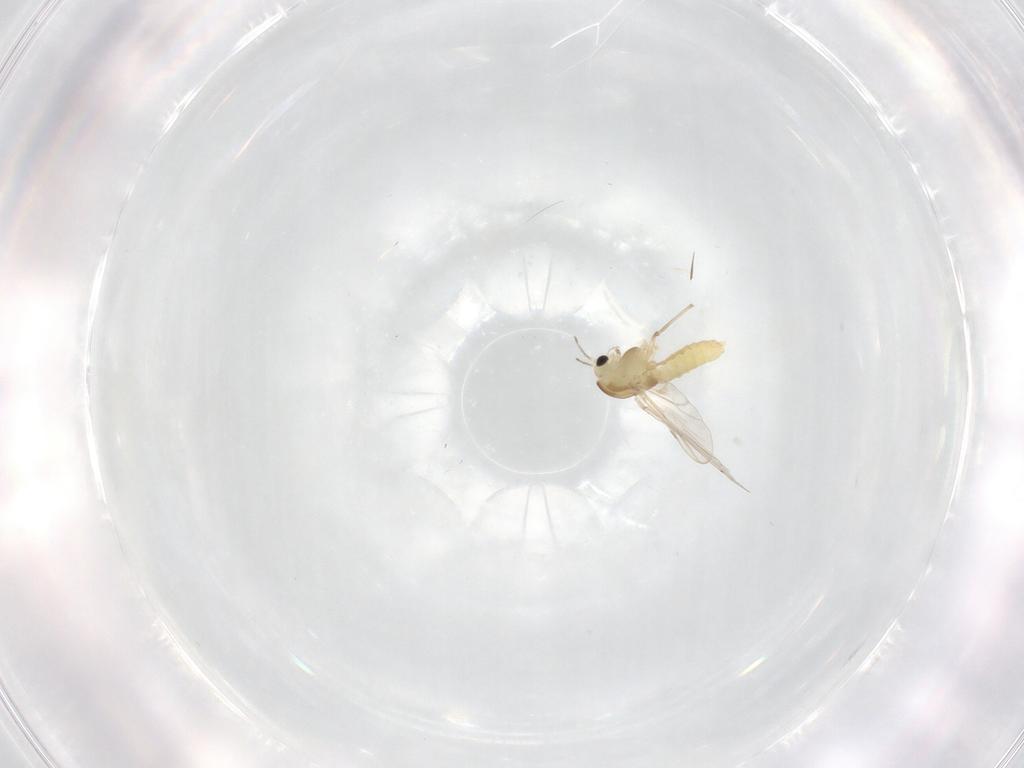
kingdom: Animalia
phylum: Arthropoda
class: Insecta
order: Diptera
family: Chironomidae
